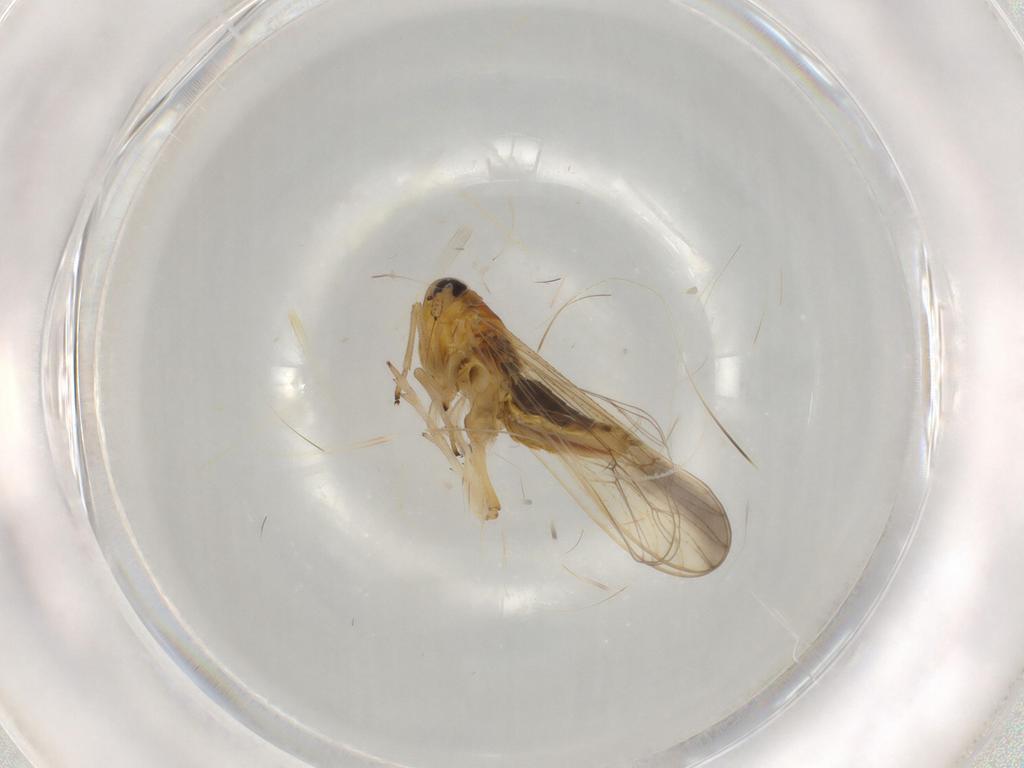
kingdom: Animalia
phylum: Arthropoda
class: Insecta
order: Hemiptera
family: Delphacidae
